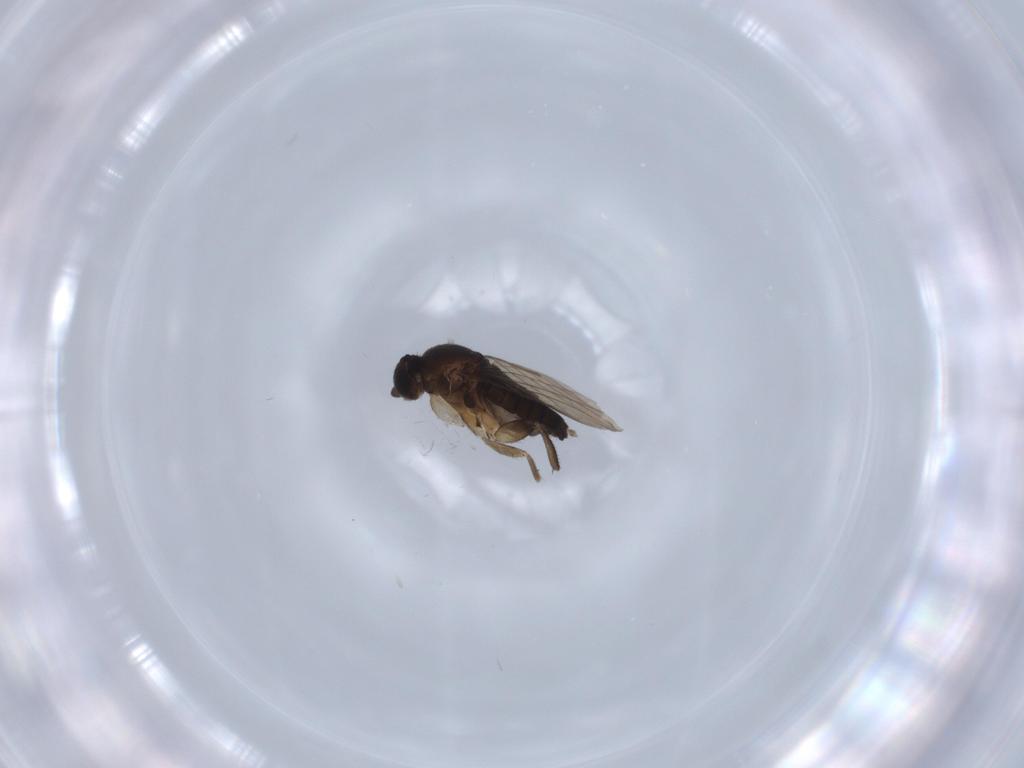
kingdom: Animalia
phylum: Arthropoda
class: Insecta
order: Diptera
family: Phoridae
